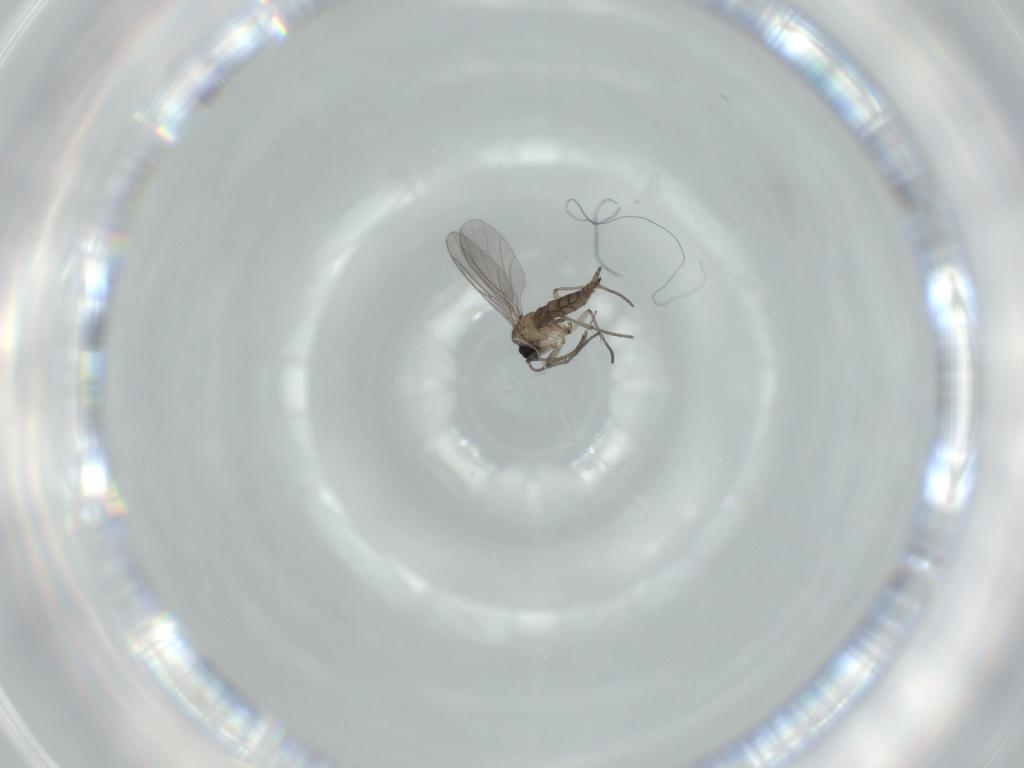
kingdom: Animalia
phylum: Arthropoda
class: Insecta
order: Diptera
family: Sciaridae
